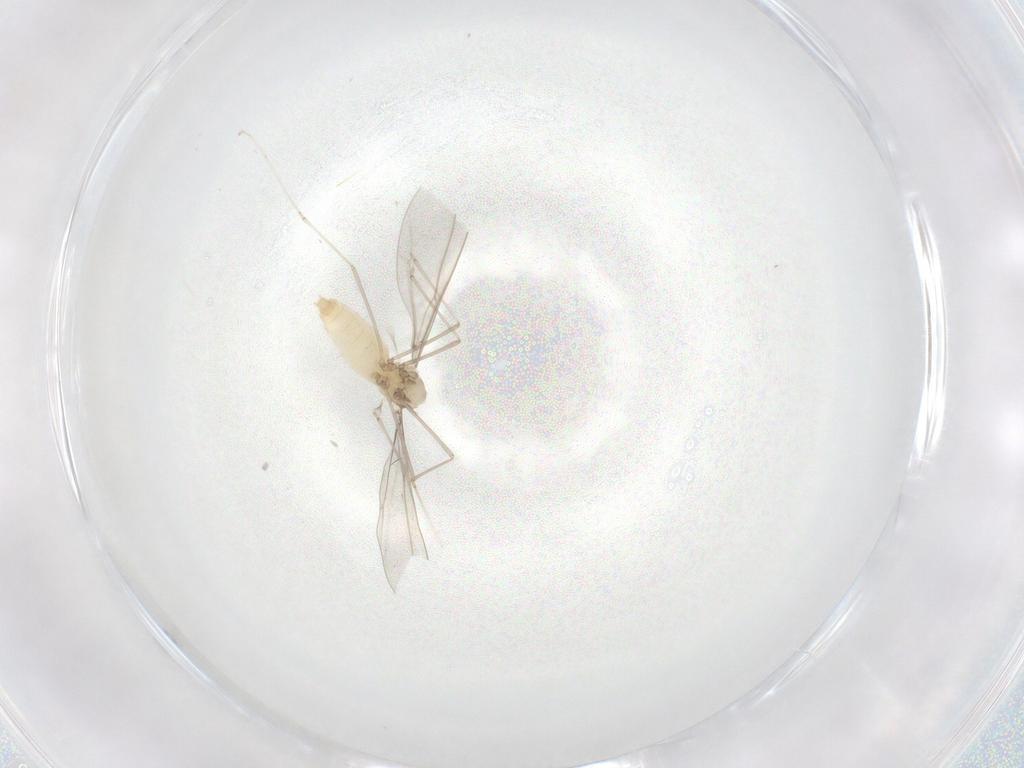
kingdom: Animalia
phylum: Arthropoda
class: Insecta
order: Diptera
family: Cecidomyiidae
